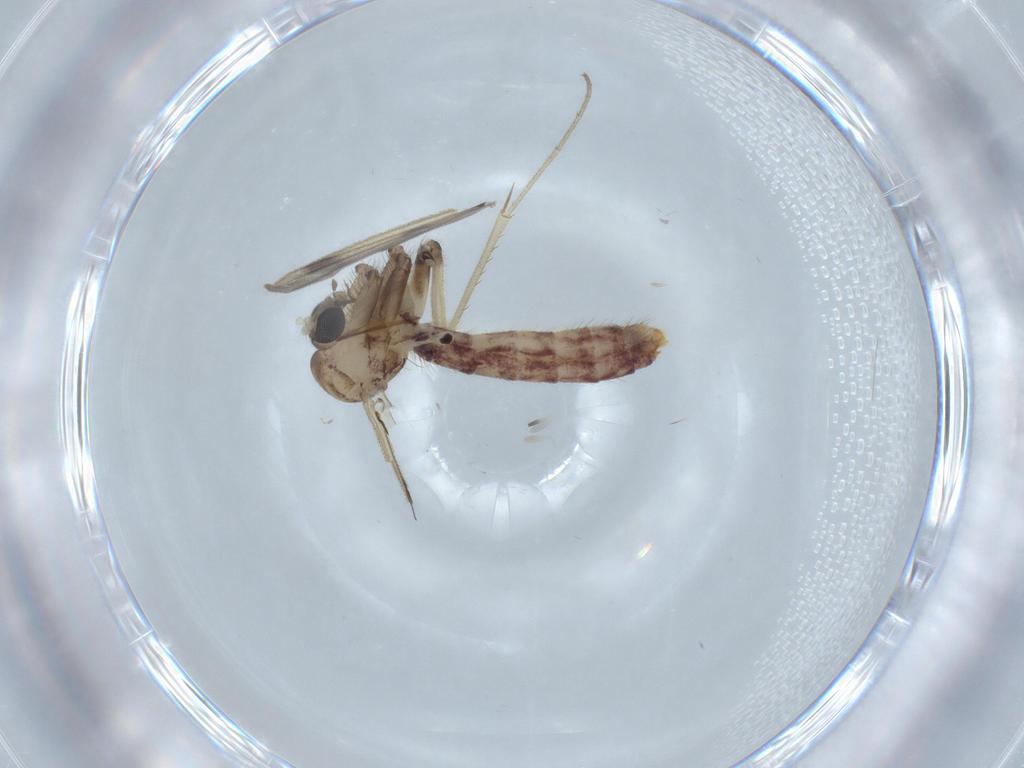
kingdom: Animalia
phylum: Arthropoda
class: Insecta
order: Diptera
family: Mycetophilidae
